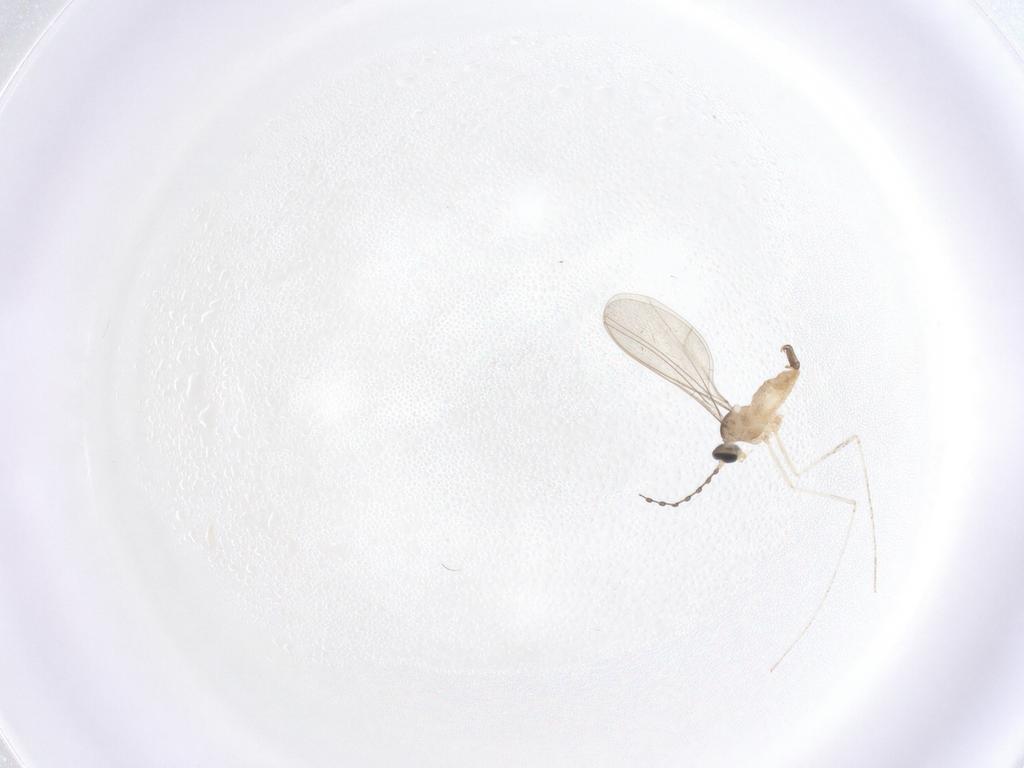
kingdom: Animalia
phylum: Arthropoda
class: Insecta
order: Diptera
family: Cecidomyiidae
